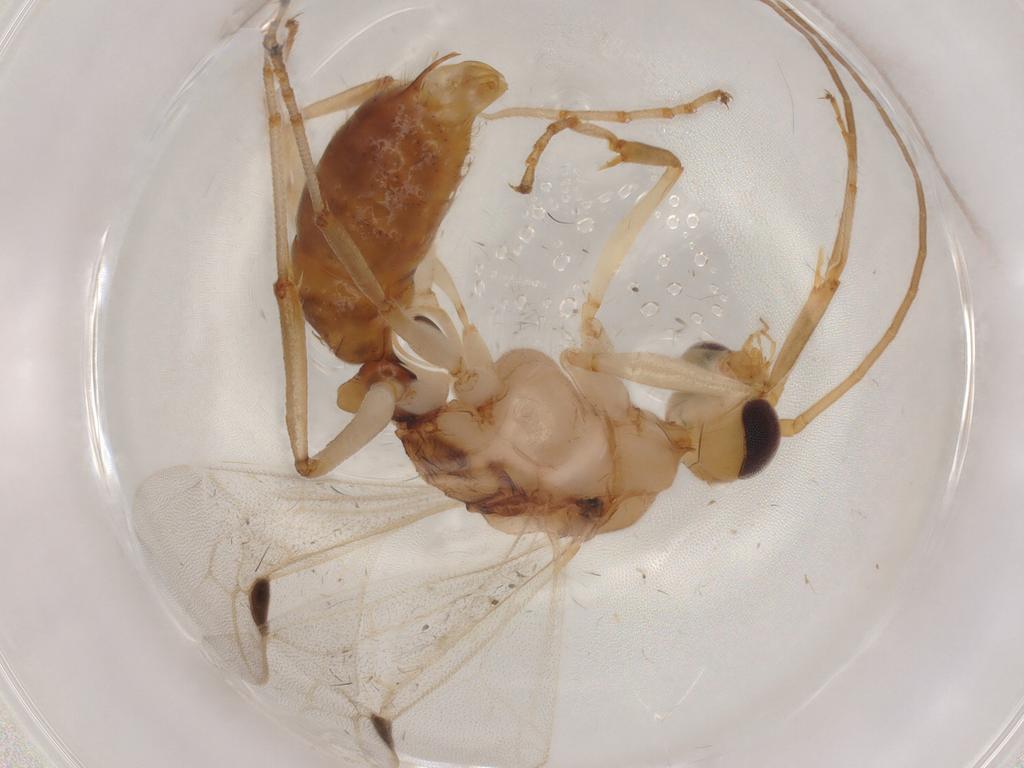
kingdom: Animalia
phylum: Arthropoda
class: Insecta
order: Hymenoptera
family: Formicidae
